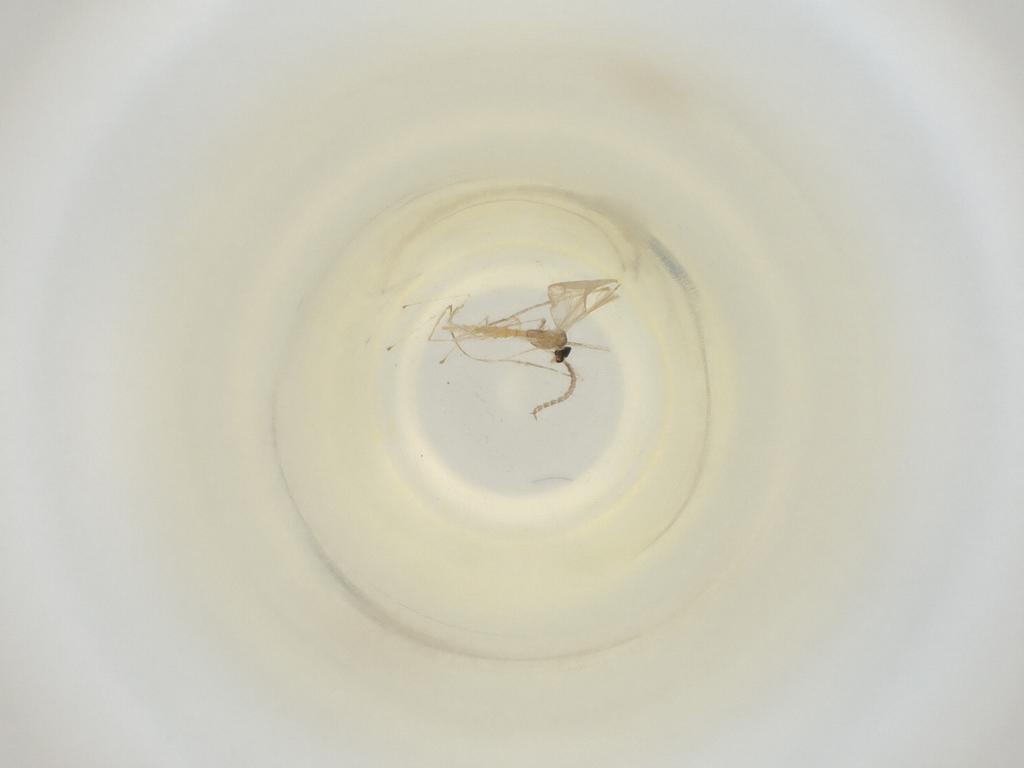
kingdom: Animalia
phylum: Arthropoda
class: Insecta
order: Diptera
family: Cecidomyiidae
